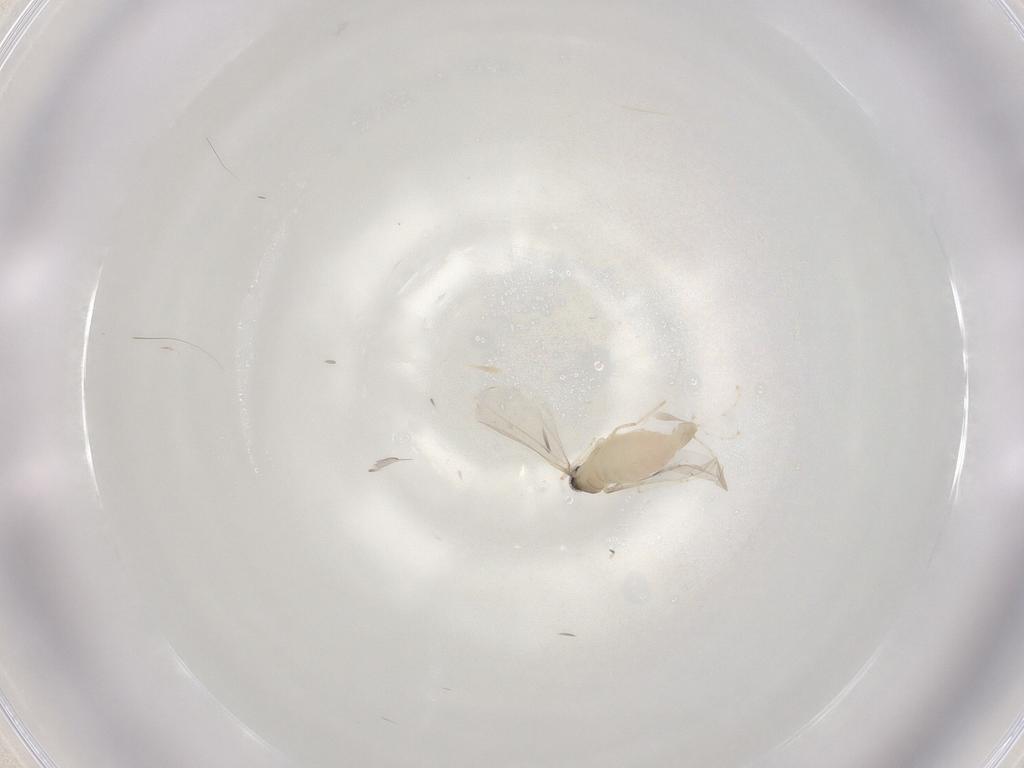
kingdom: Animalia
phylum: Arthropoda
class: Insecta
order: Diptera
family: Cecidomyiidae
